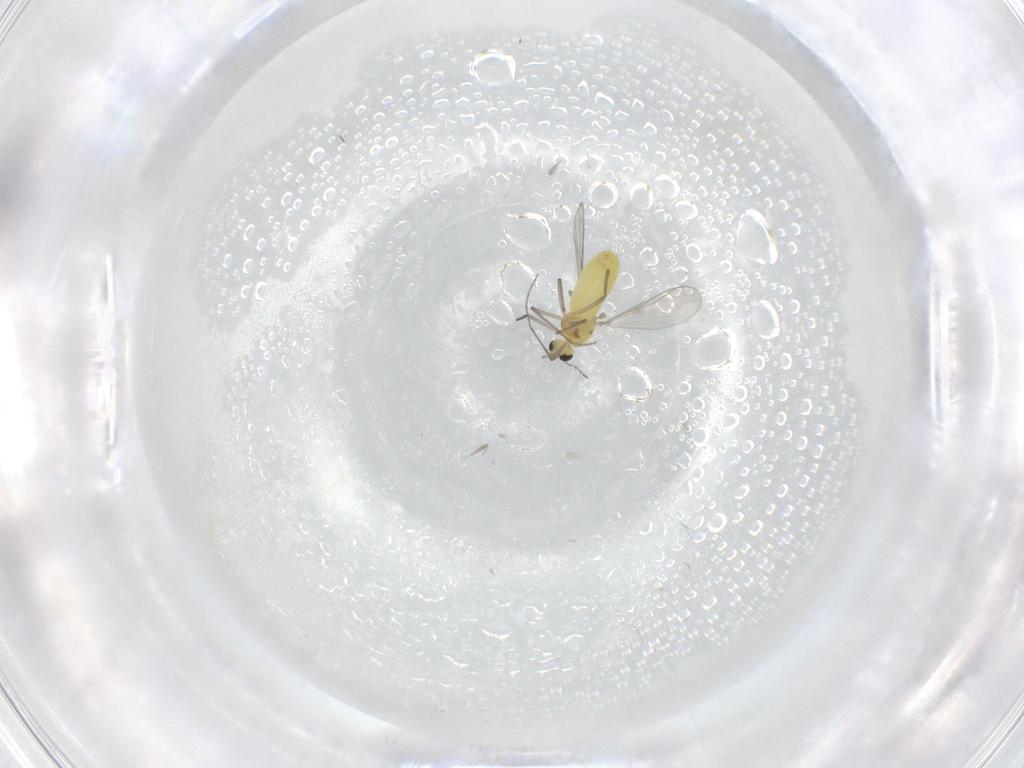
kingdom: Animalia
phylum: Arthropoda
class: Insecta
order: Diptera
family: Chironomidae
